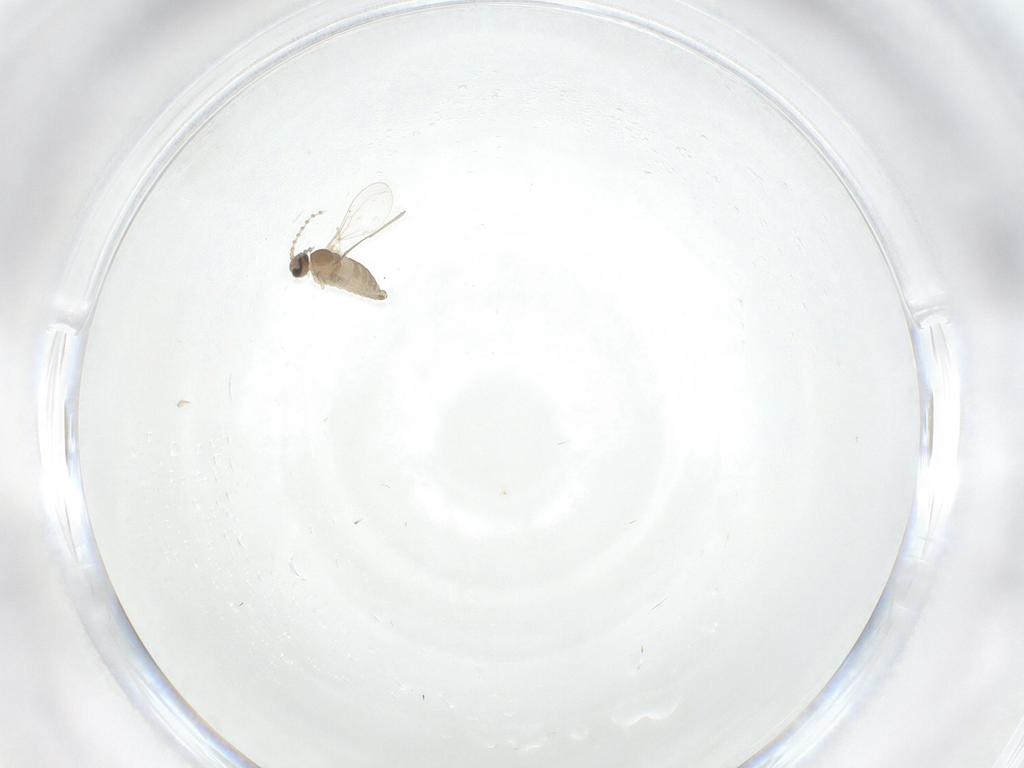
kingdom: Animalia
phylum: Arthropoda
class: Insecta
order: Diptera
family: Cecidomyiidae
